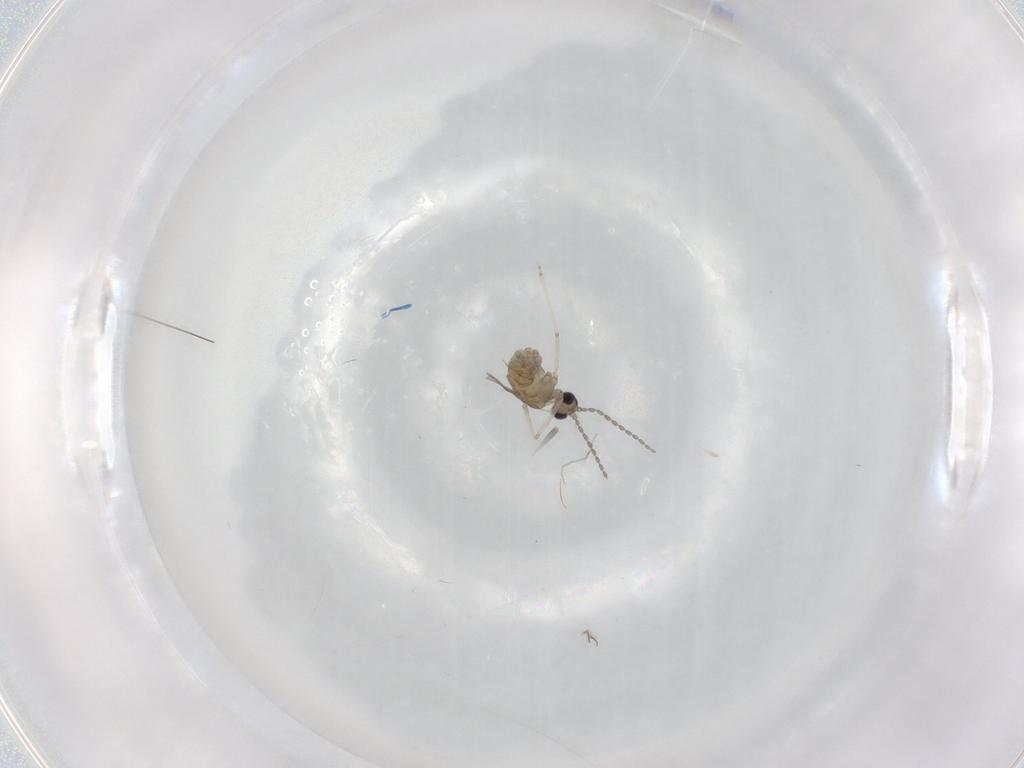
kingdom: Animalia
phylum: Arthropoda
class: Insecta
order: Diptera
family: Cecidomyiidae
